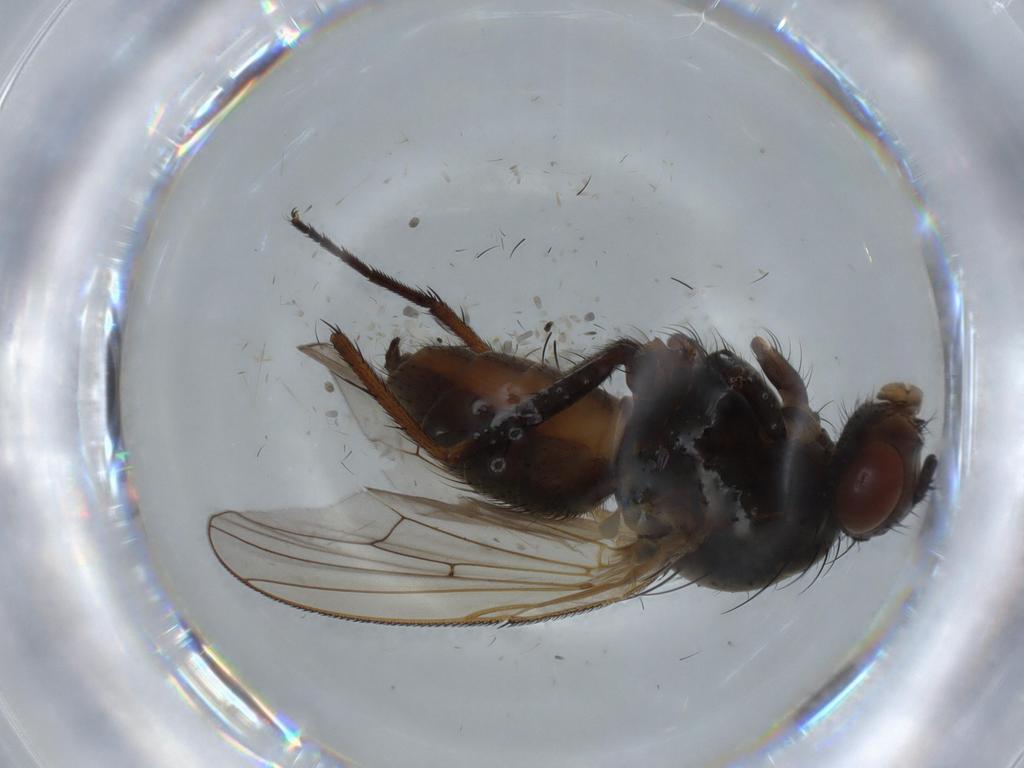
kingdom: Animalia
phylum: Arthropoda
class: Insecta
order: Diptera
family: Anthomyiidae
